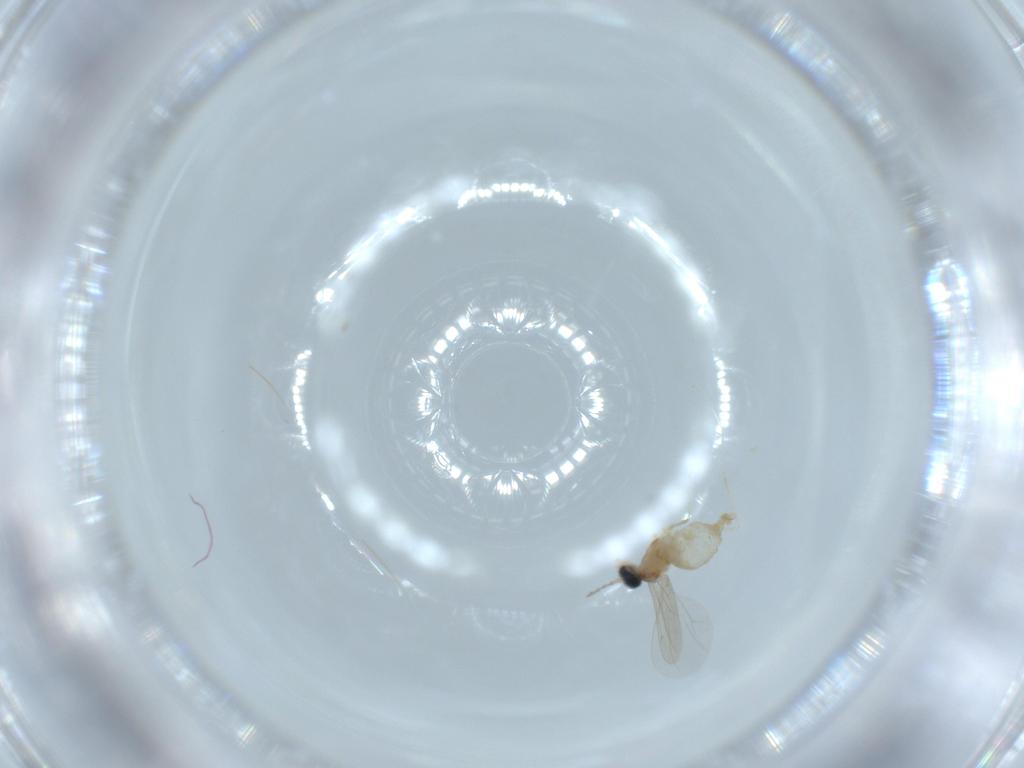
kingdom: Animalia
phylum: Arthropoda
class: Insecta
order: Diptera
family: Cecidomyiidae
